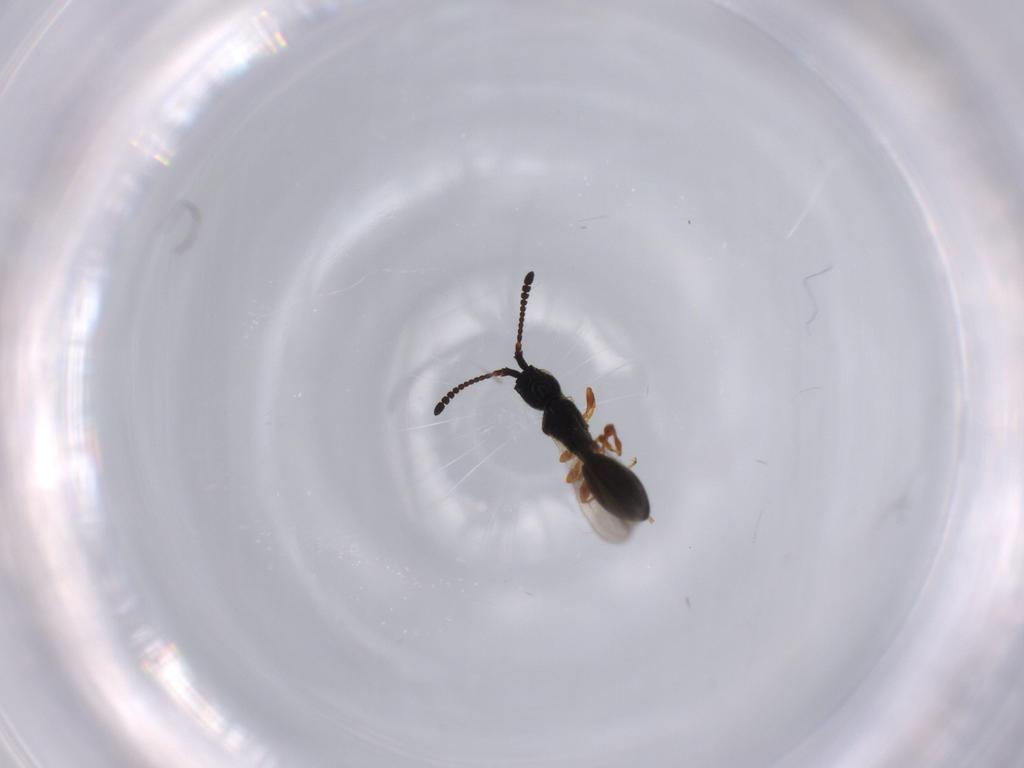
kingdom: Animalia
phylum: Arthropoda
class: Insecta
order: Hymenoptera
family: Diapriidae
